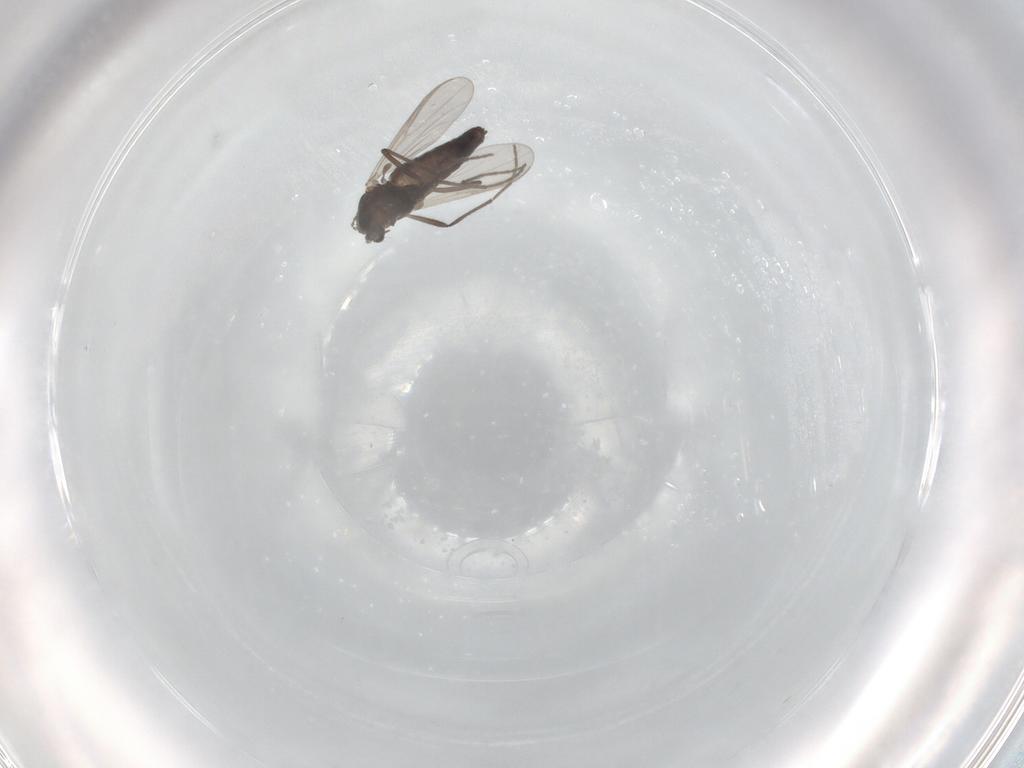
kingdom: Animalia
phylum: Arthropoda
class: Insecta
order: Diptera
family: Chironomidae
